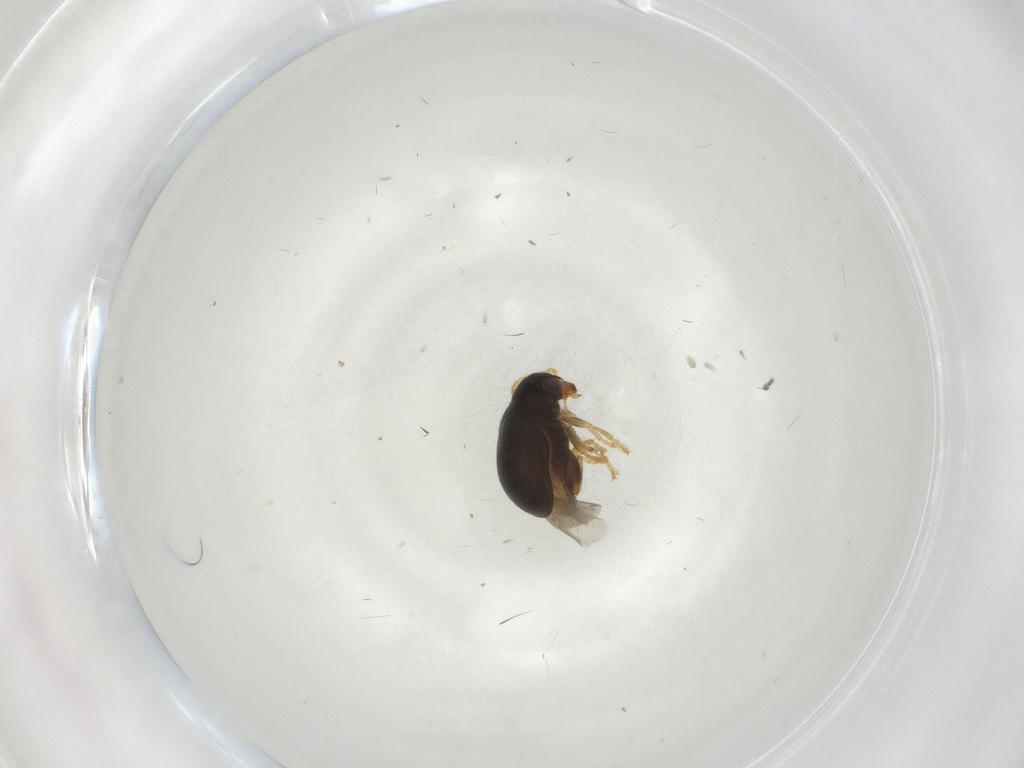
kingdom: Animalia
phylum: Arthropoda
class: Insecta
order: Coleoptera
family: Chrysomelidae
